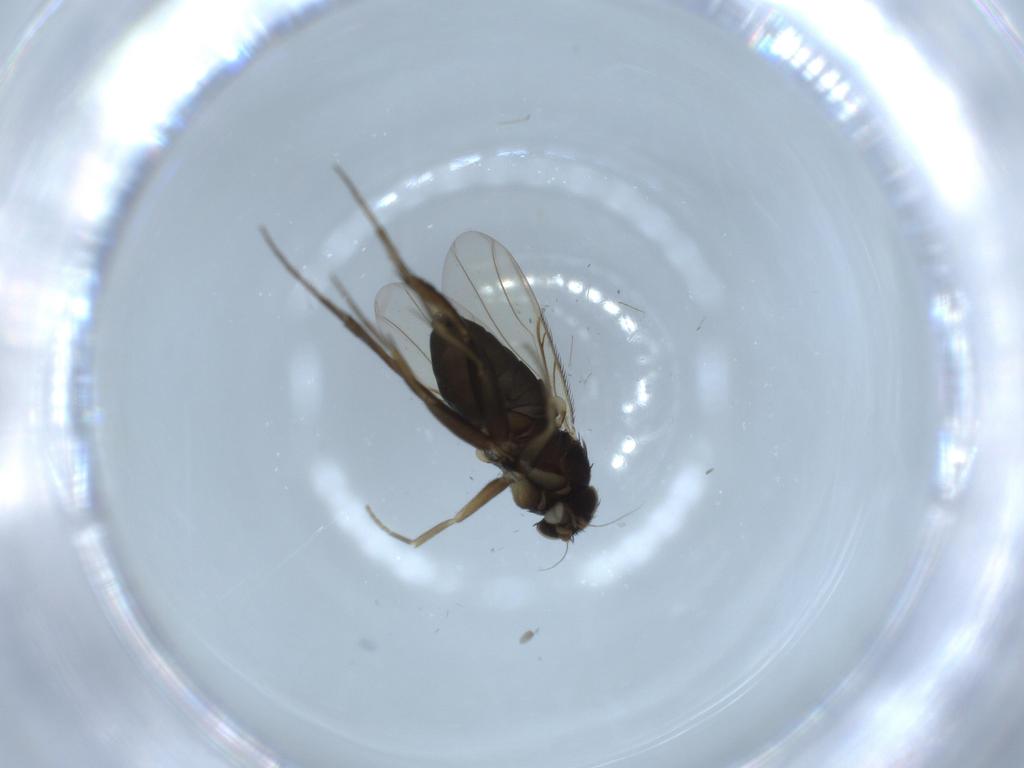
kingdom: Animalia
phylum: Arthropoda
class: Insecta
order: Diptera
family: Phoridae
